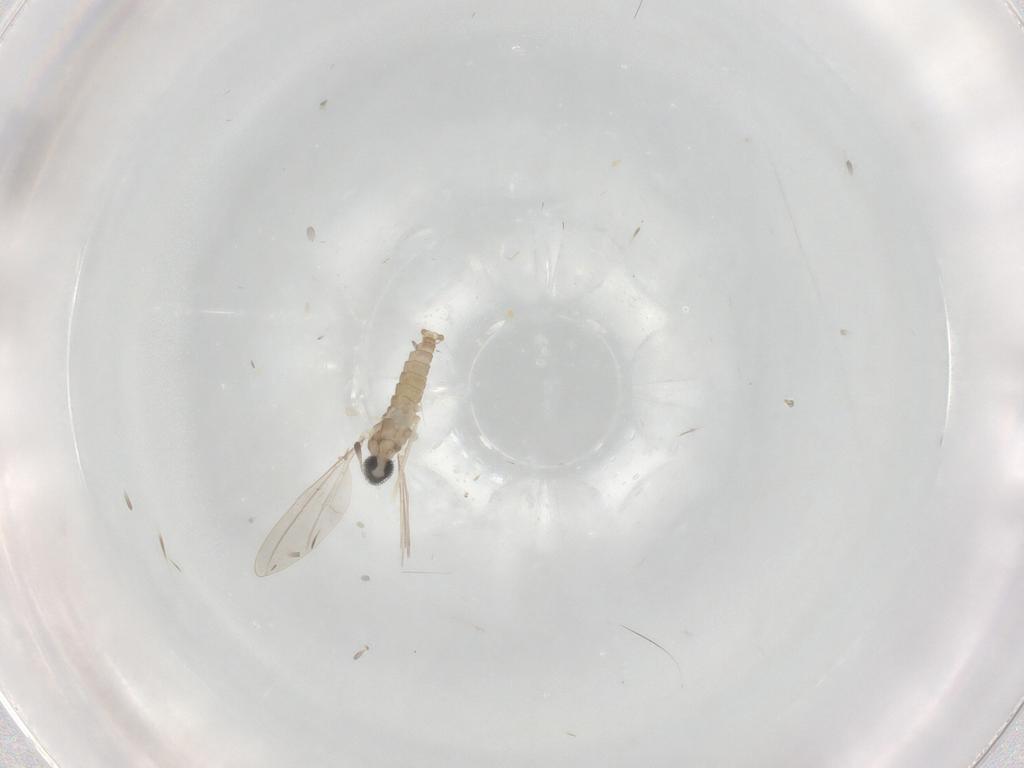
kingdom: Animalia
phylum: Arthropoda
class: Insecta
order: Diptera
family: Cecidomyiidae
